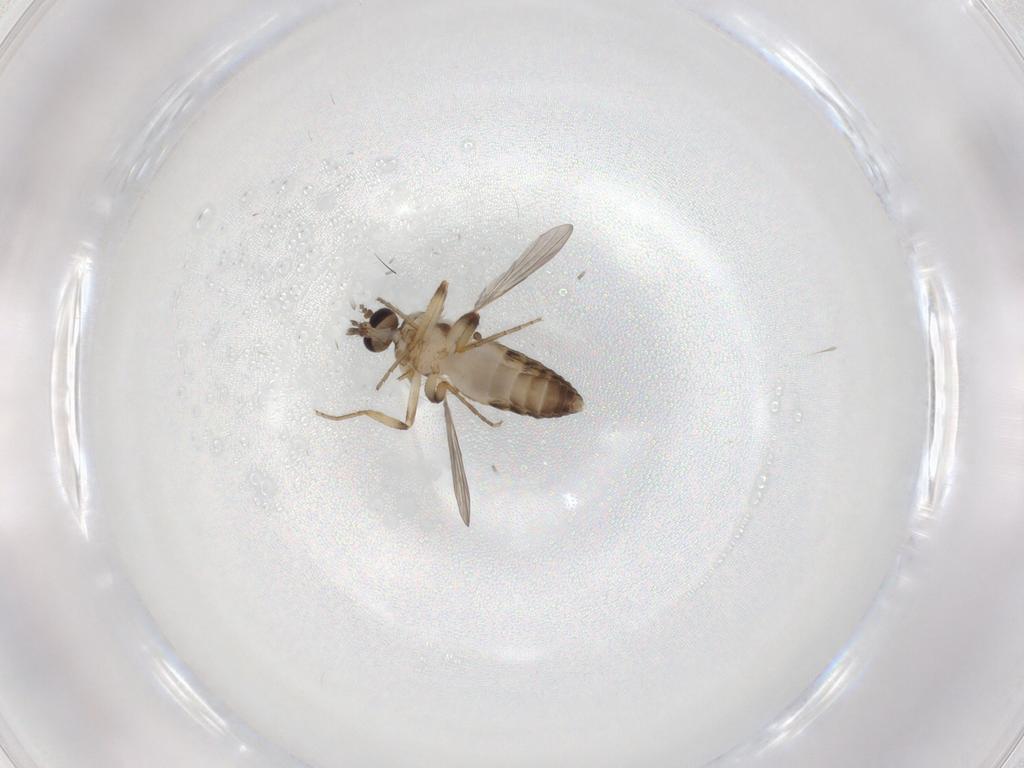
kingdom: Animalia
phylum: Arthropoda
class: Insecta
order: Diptera
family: Ceratopogonidae
